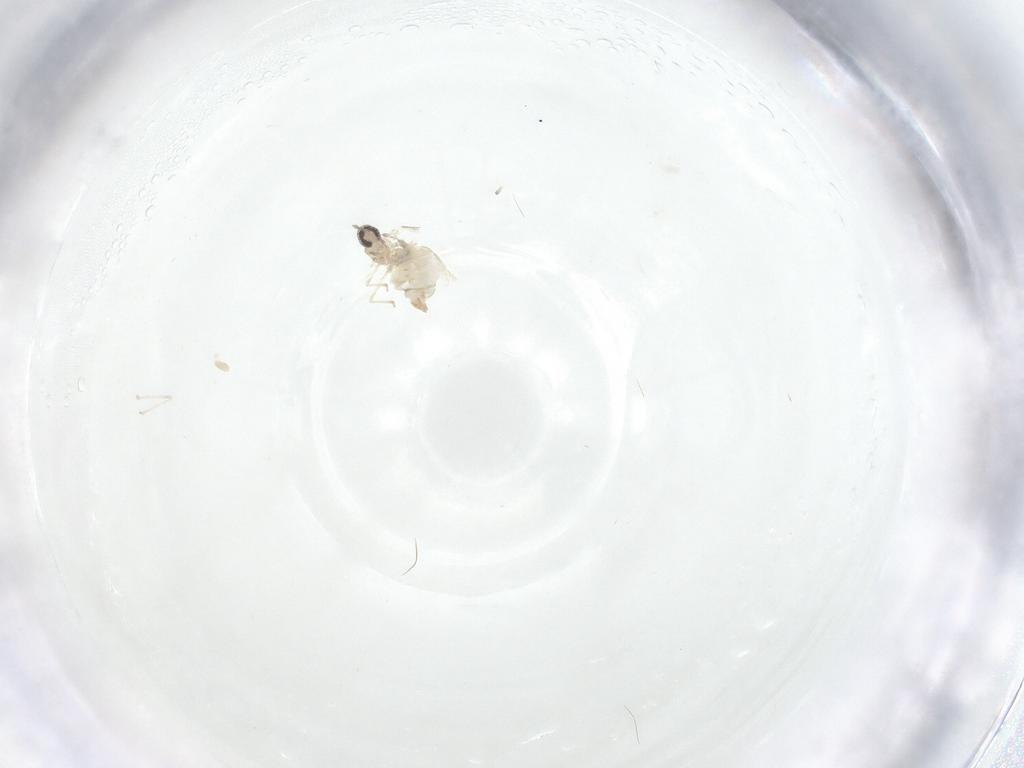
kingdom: Animalia
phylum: Arthropoda
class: Insecta
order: Diptera
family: Cecidomyiidae
